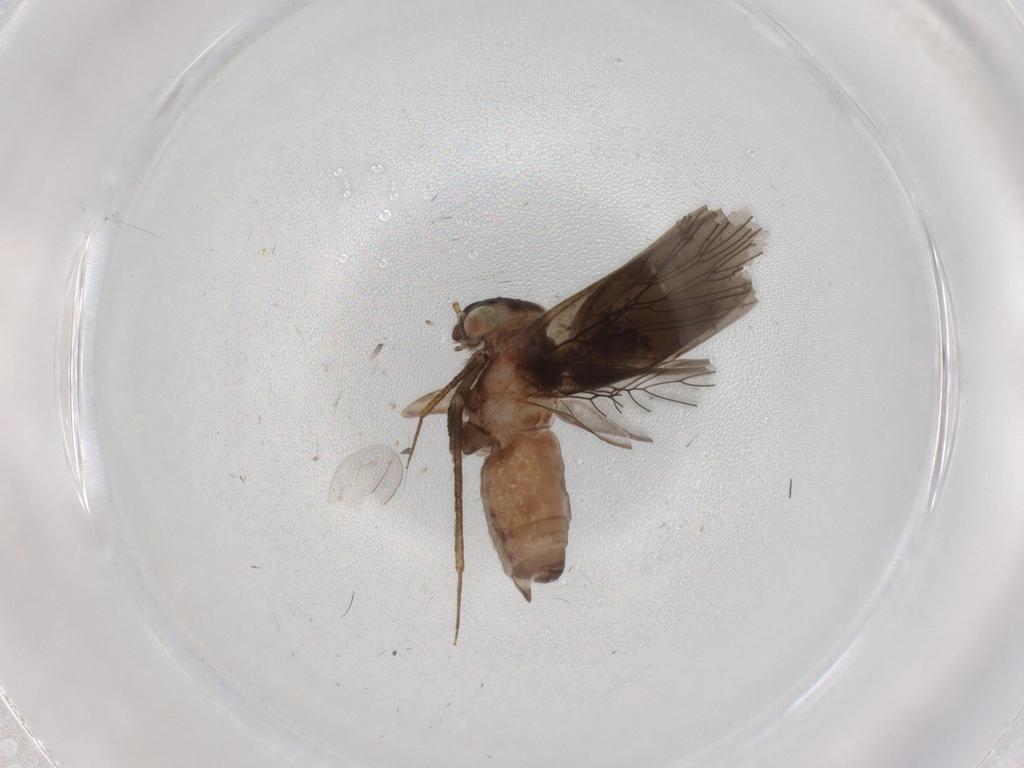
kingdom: Animalia
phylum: Arthropoda
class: Insecta
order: Psocodea
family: Lepidopsocidae
